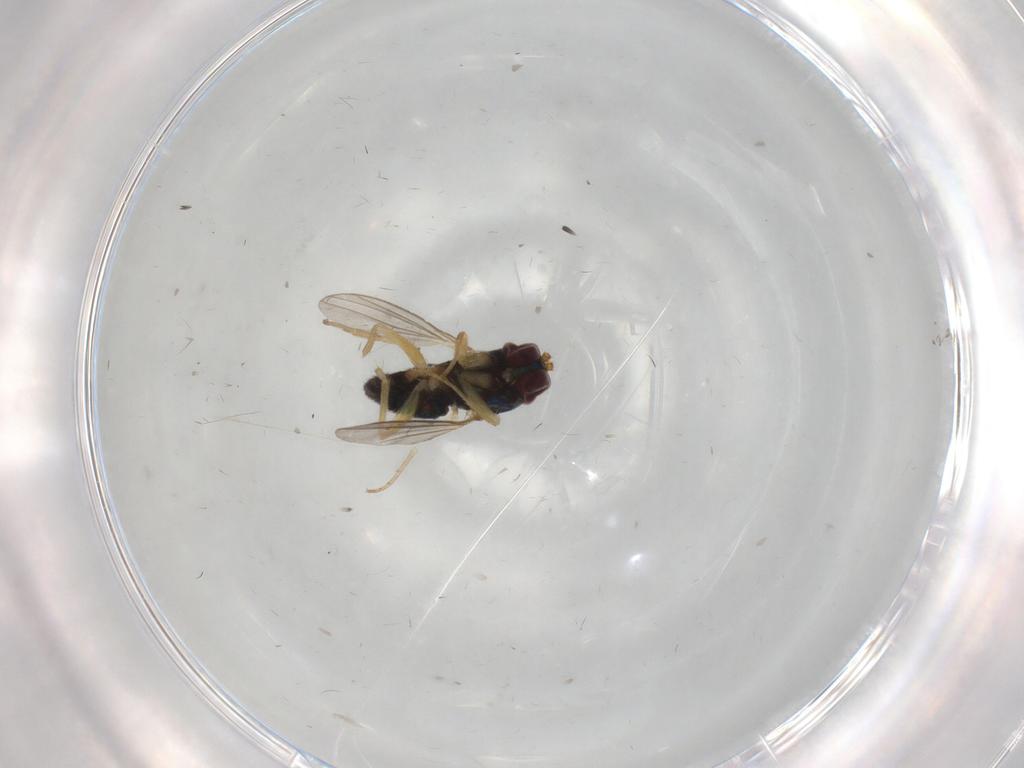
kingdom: Animalia
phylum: Arthropoda
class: Insecta
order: Diptera
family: Dolichopodidae
